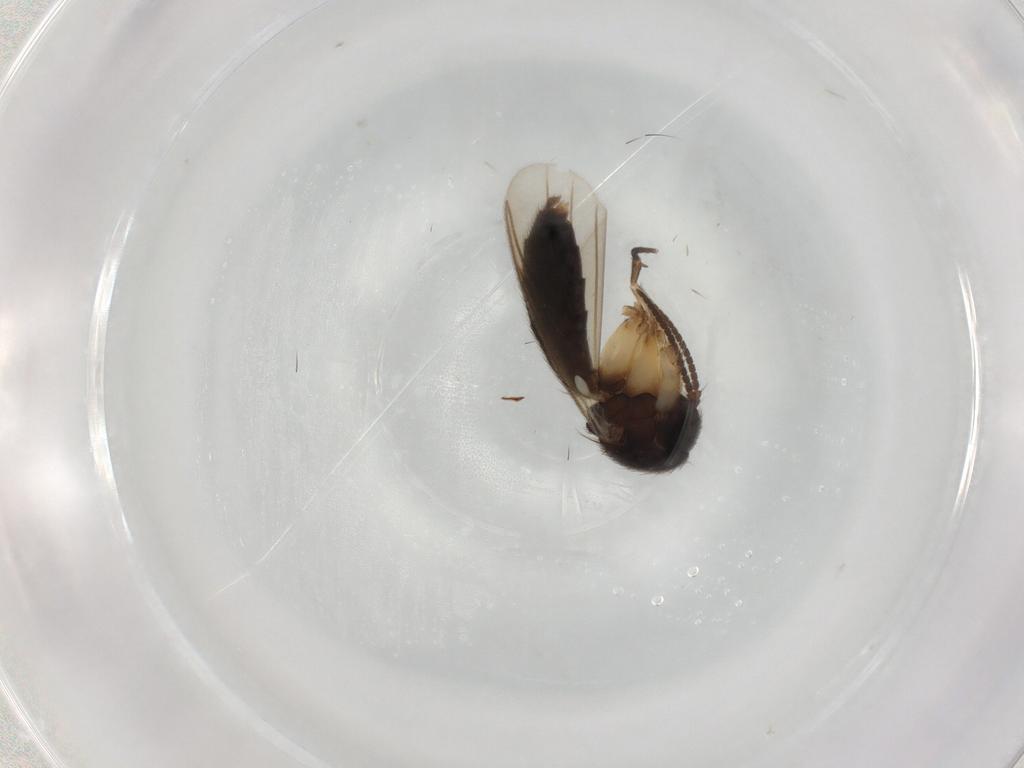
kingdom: Animalia
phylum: Arthropoda
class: Insecta
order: Diptera
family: Mycetophilidae
